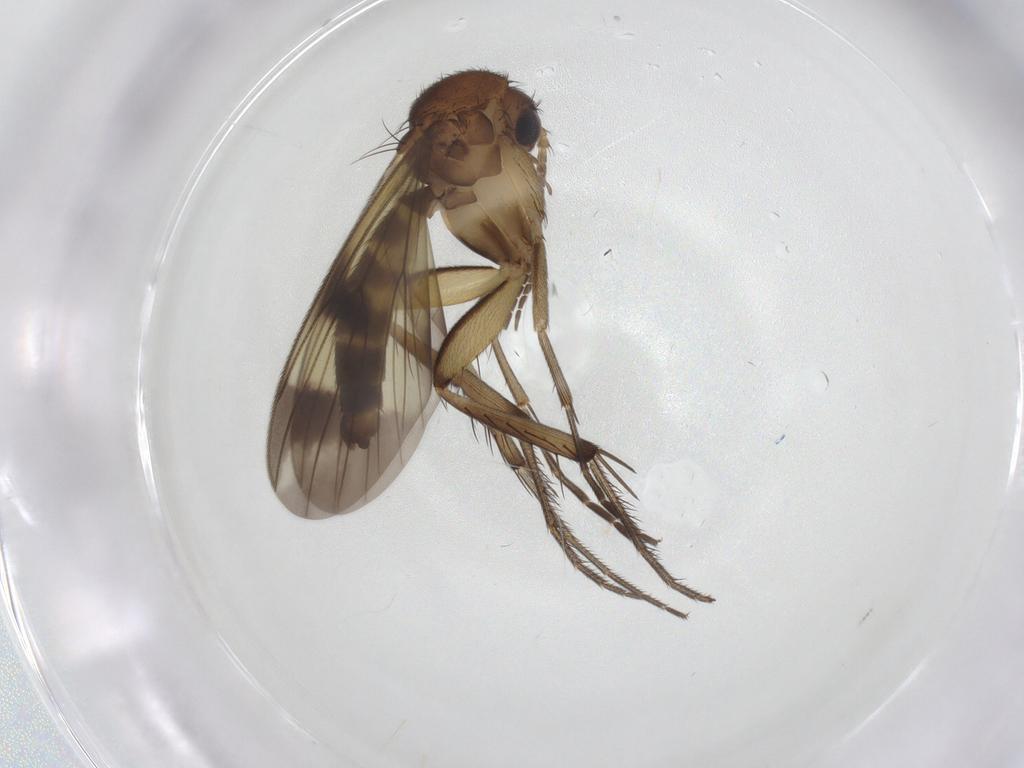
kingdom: Animalia
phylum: Arthropoda
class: Insecta
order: Diptera
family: Mycetophilidae
